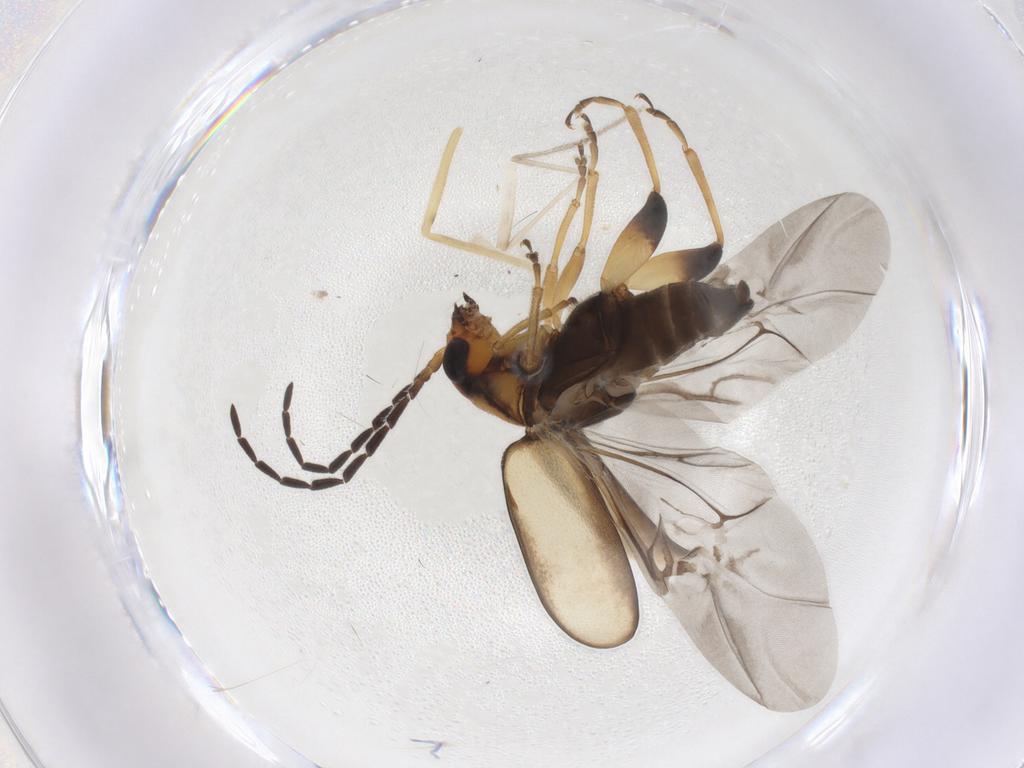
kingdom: Animalia
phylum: Arthropoda
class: Insecta
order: Coleoptera
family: Chrysomelidae
